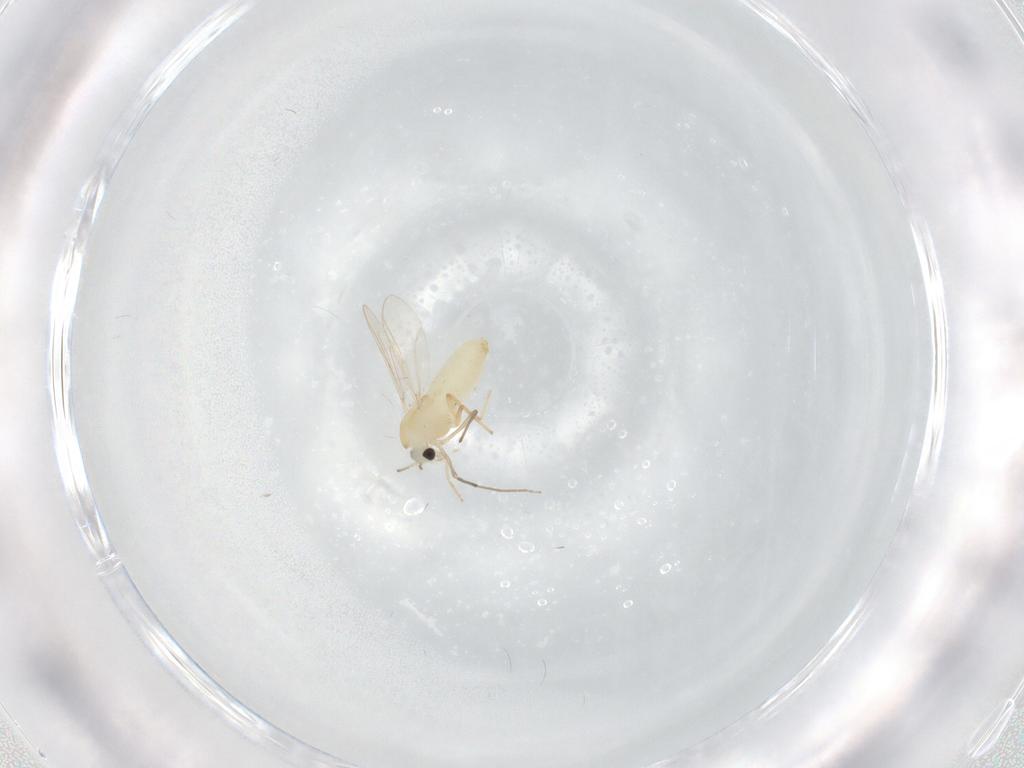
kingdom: Animalia
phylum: Arthropoda
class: Insecta
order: Diptera
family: Chironomidae
